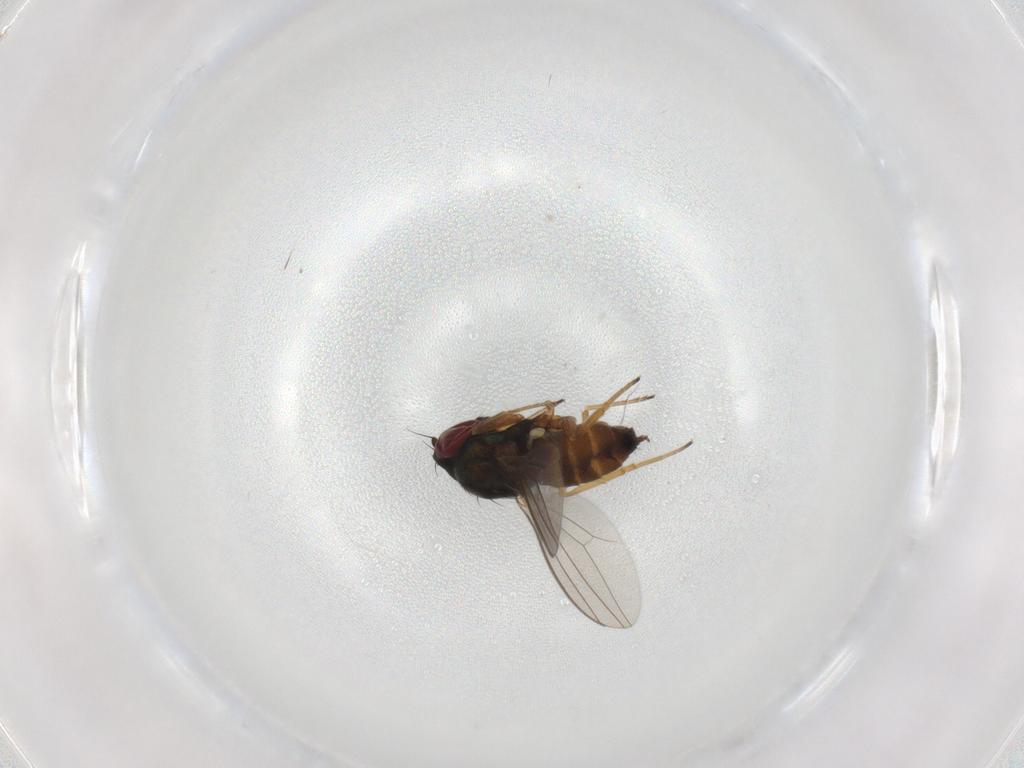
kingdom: Animalia
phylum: Arthropoda
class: Insecta
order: Diptera
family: Dolichopodidae
